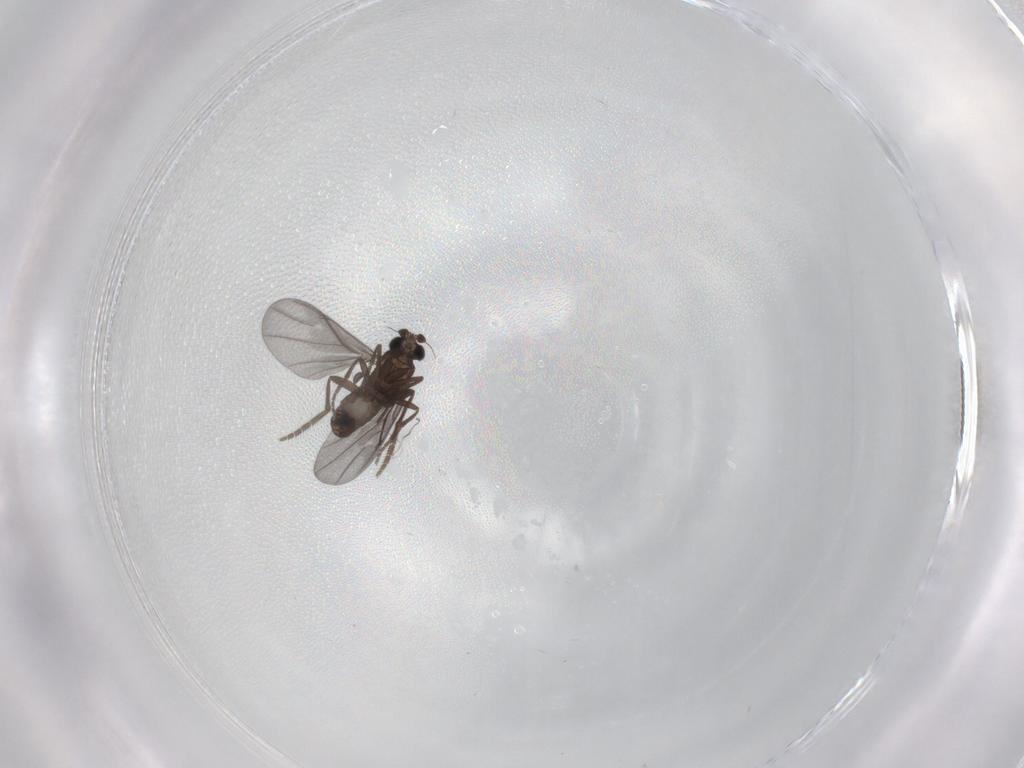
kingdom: Animalia
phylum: Arthropoda
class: Insecta
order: Diptera
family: Phoridae
